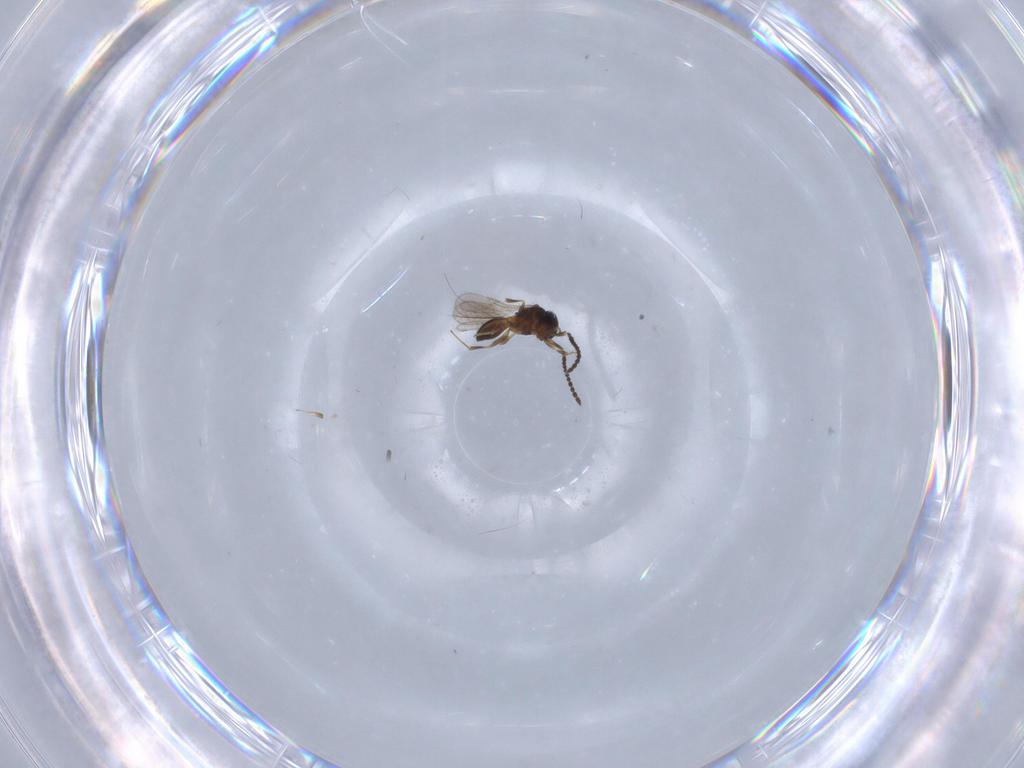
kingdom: Animalia
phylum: Arthropoda
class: Insecta
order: Hymenoptera
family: Scelionidae
